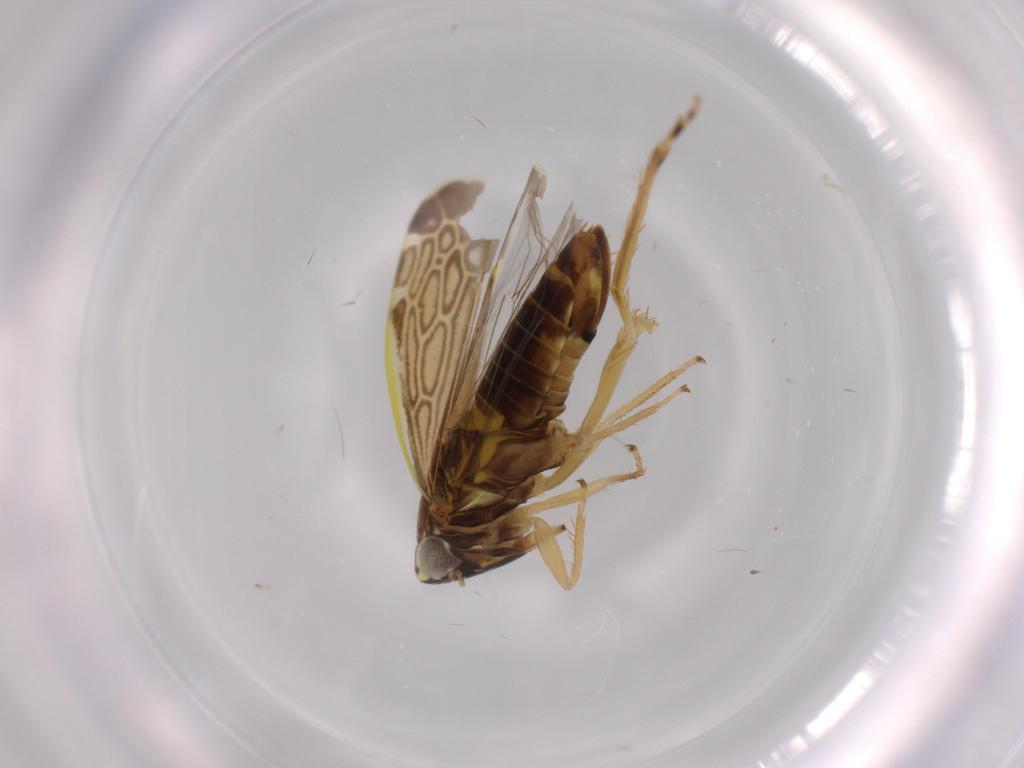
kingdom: Animalia
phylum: Arthropoda
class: Insecta
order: Hemiptera
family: Cicadellidae
